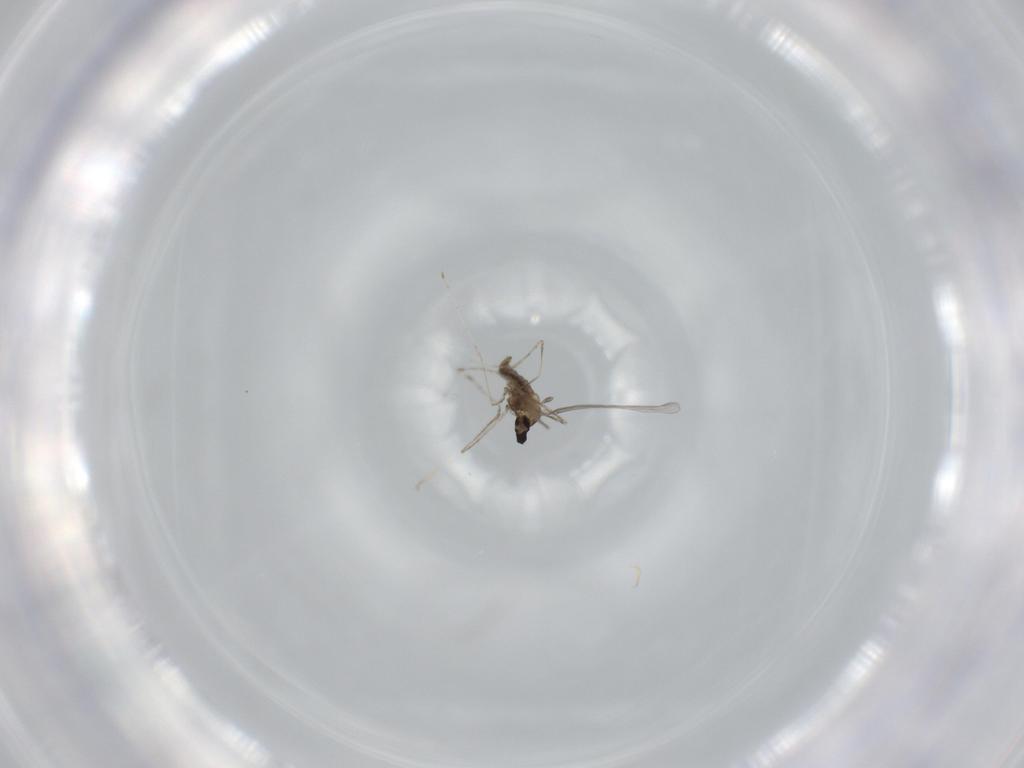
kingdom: Animalia
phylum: Arthropoda
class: Insecta
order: Diptera
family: Cecidomyiidae
